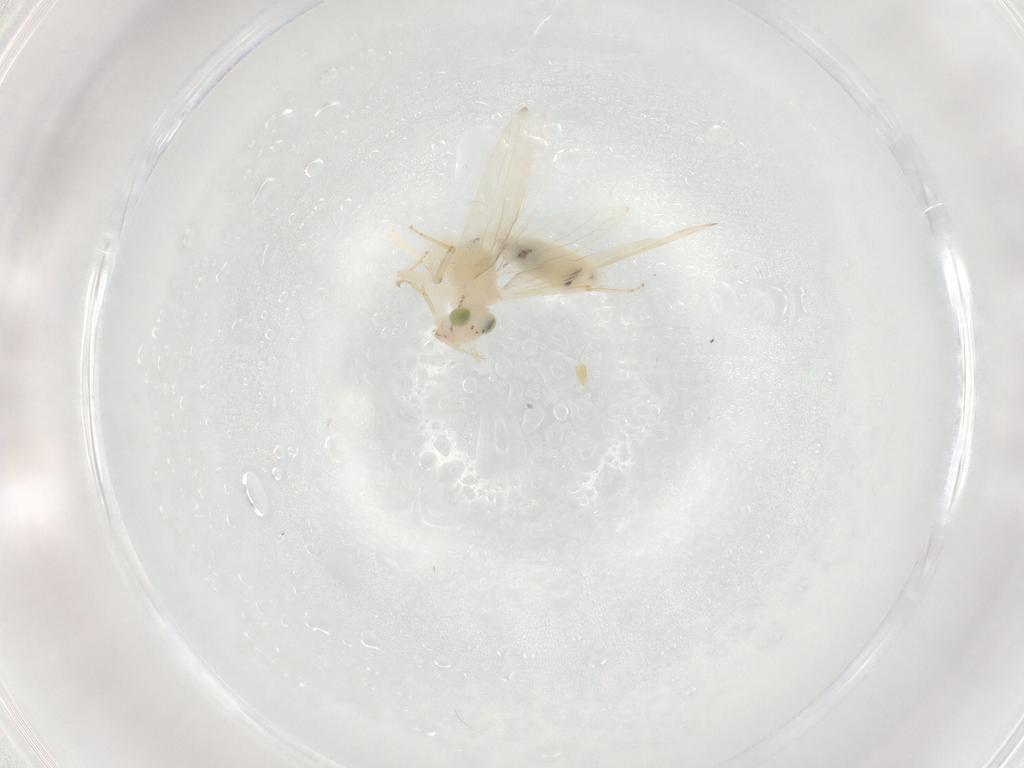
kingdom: Animalia
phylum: Arthropoda
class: Insecta
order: Psocodea
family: Lepidopsocidae
